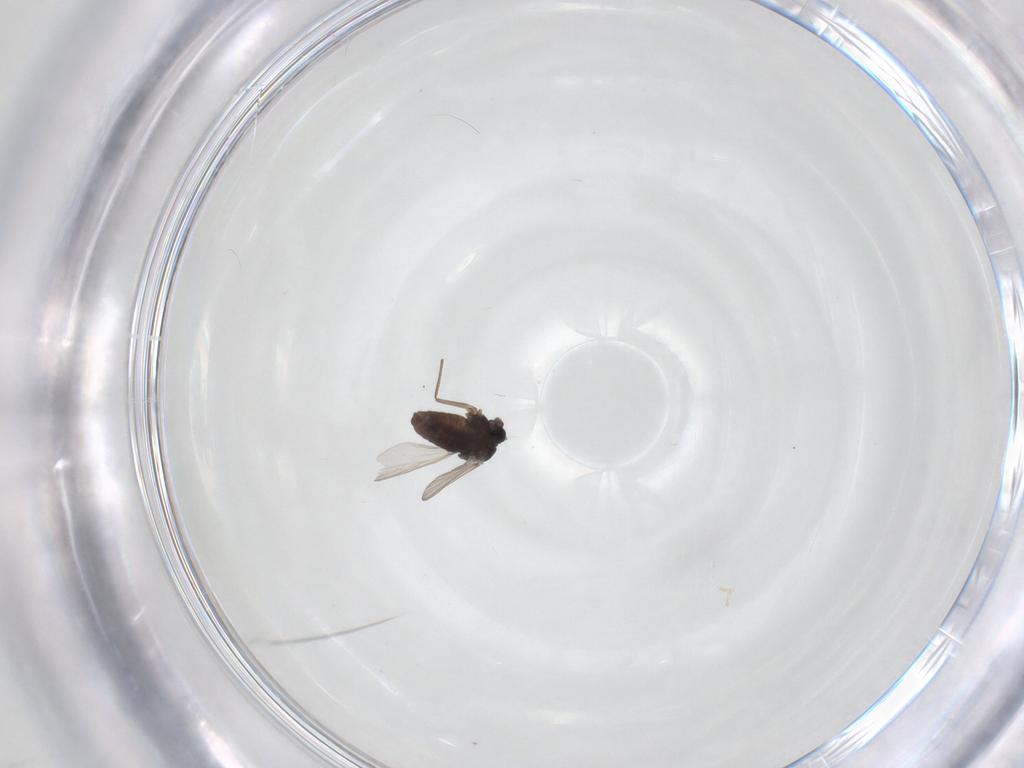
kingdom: Animalia
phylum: Arthropoda
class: Insecta
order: Diptera
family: Chironomidae
